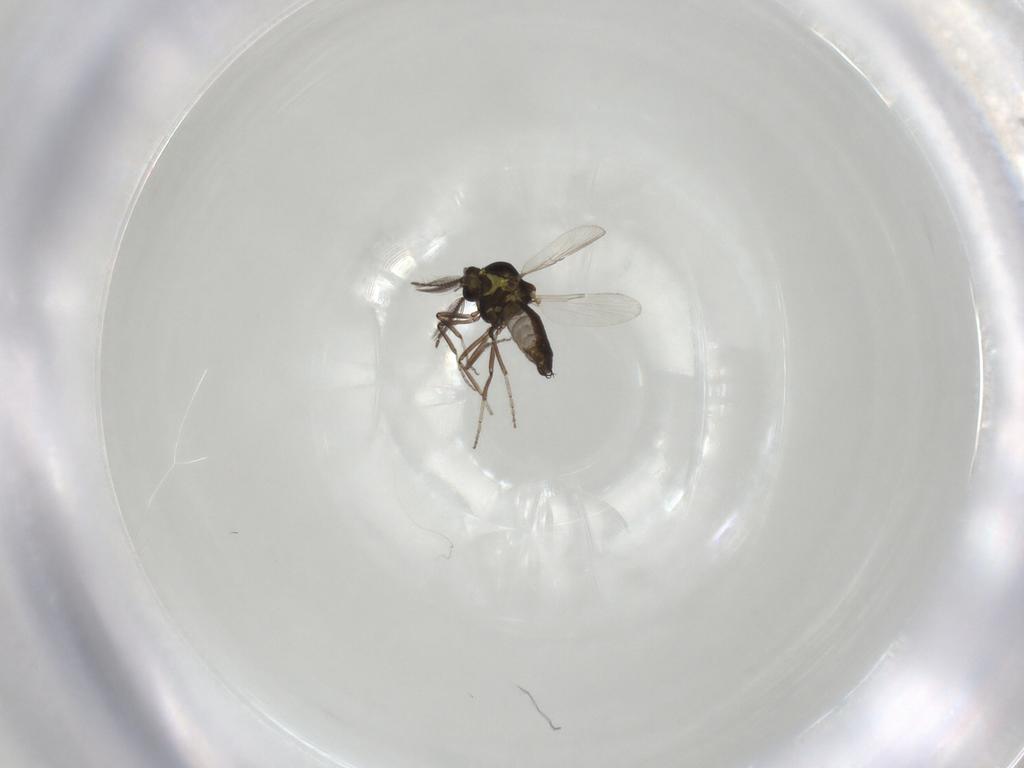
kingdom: Animalia
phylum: Arthropoda
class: Insecta
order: Diptera
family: Ceratopogonidae
